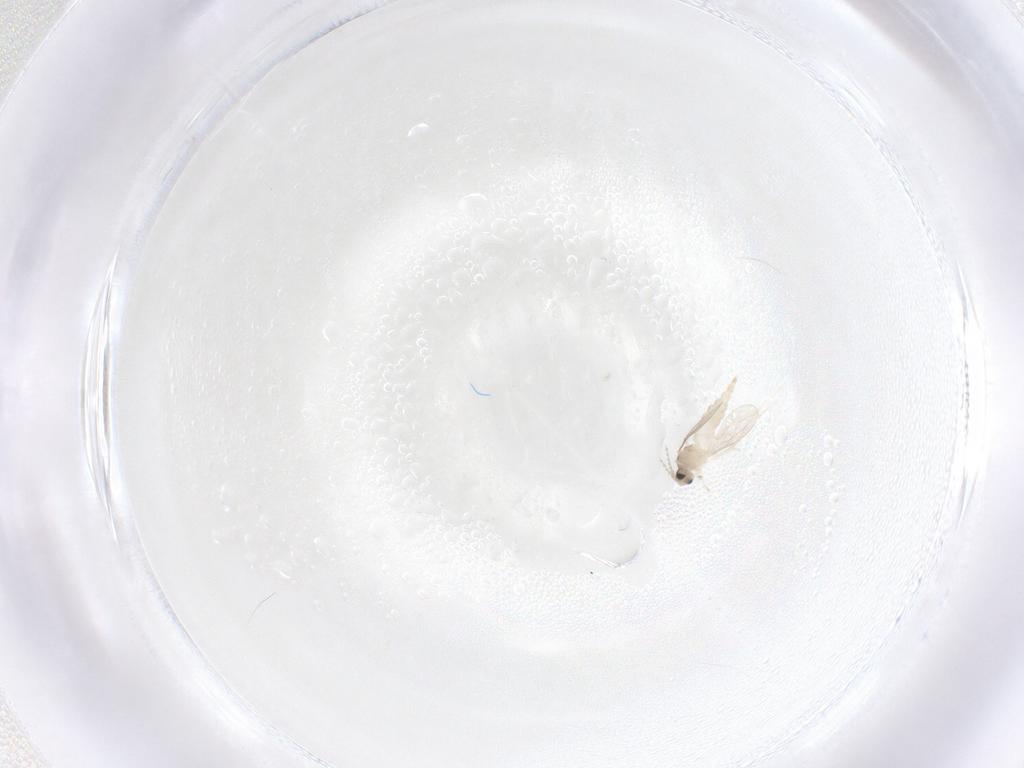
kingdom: Animalia
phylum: Arthropoda
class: Insecta
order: Diptera
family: Cecidomyiidae
